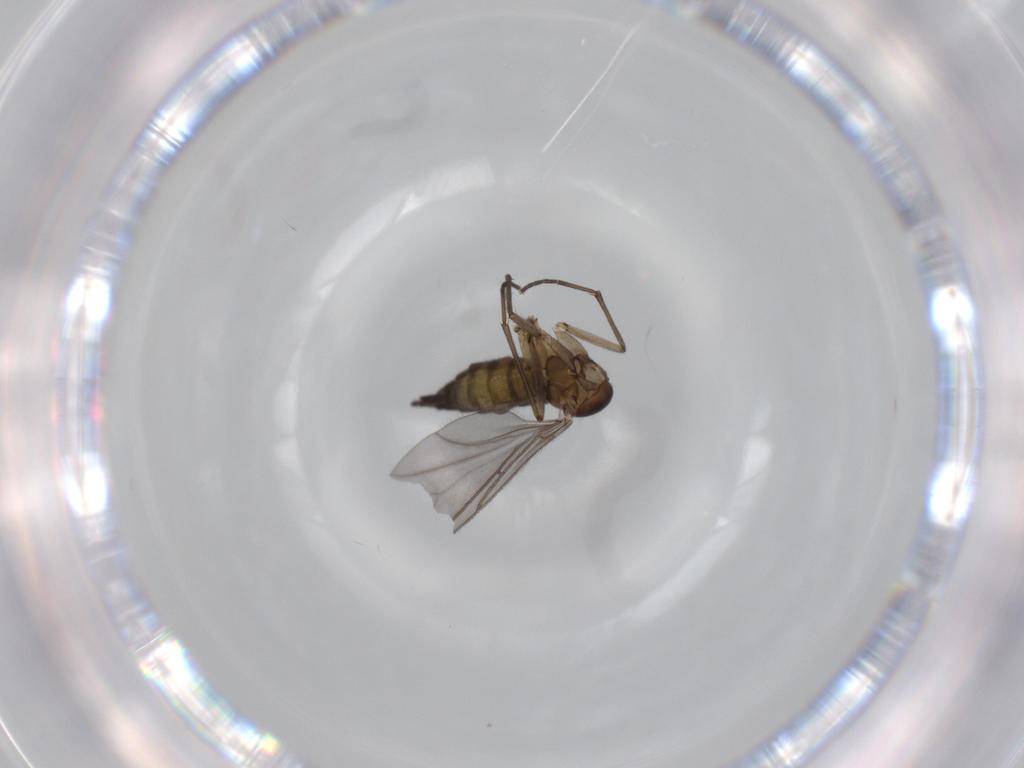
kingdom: Animalia
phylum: Arthropoda
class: Insecta
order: Diptera
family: Sciaridae
